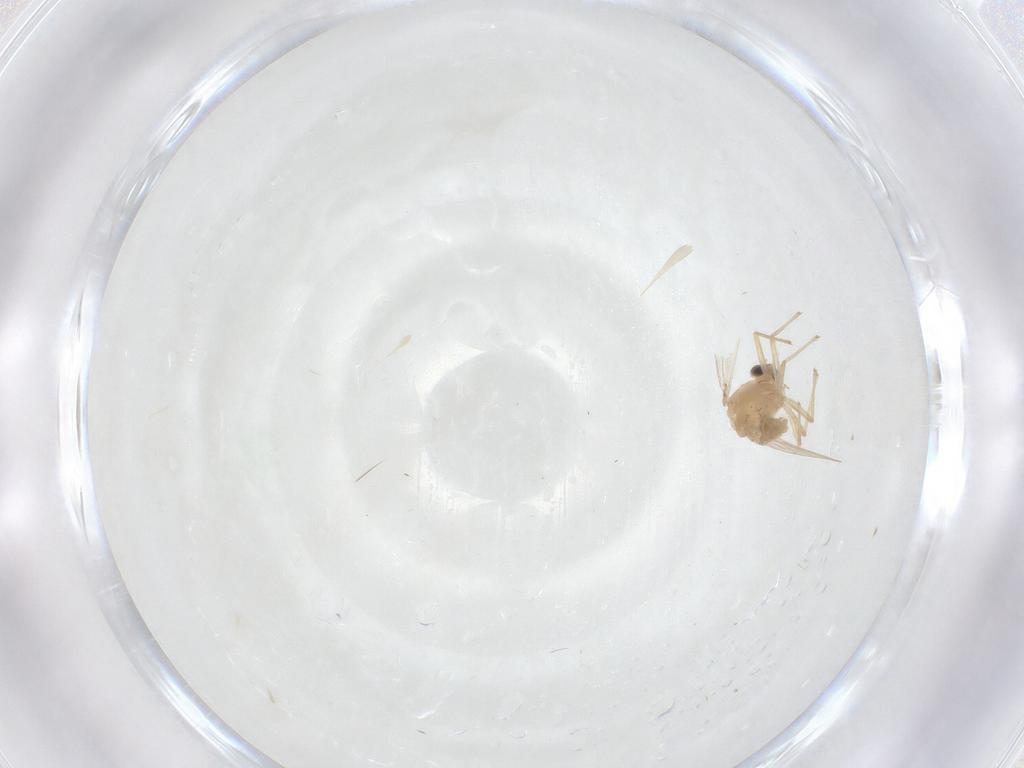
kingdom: Animalia
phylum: Arthropoda
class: Insecta
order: Diptera
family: Chironomidae
